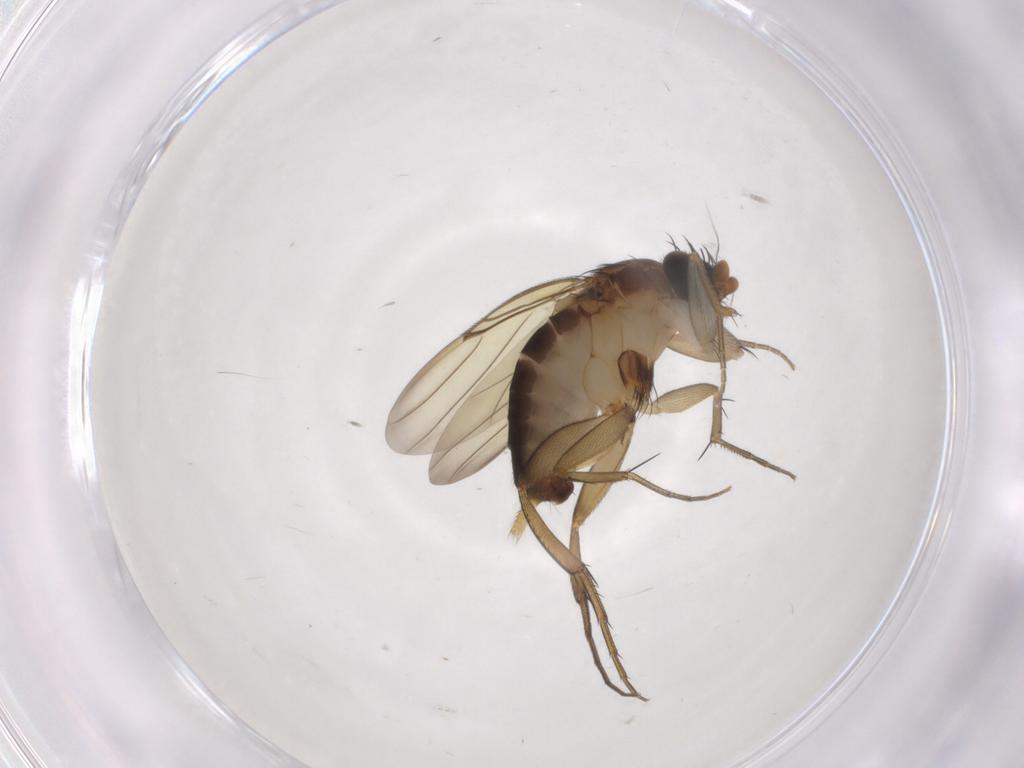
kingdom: Animalia
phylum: Arthropoda
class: Insecta
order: Diptera
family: Phoridae
